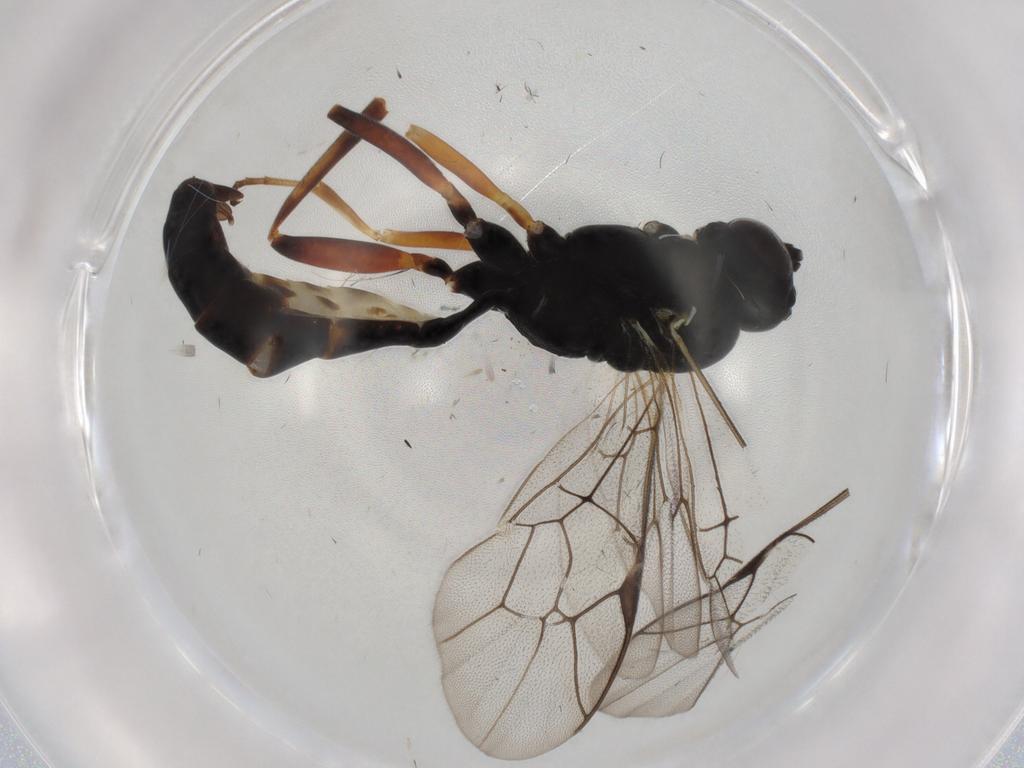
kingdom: Animalia
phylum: Arthropoda
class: Insecta
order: Hymenoptera
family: Ichneumonidae
